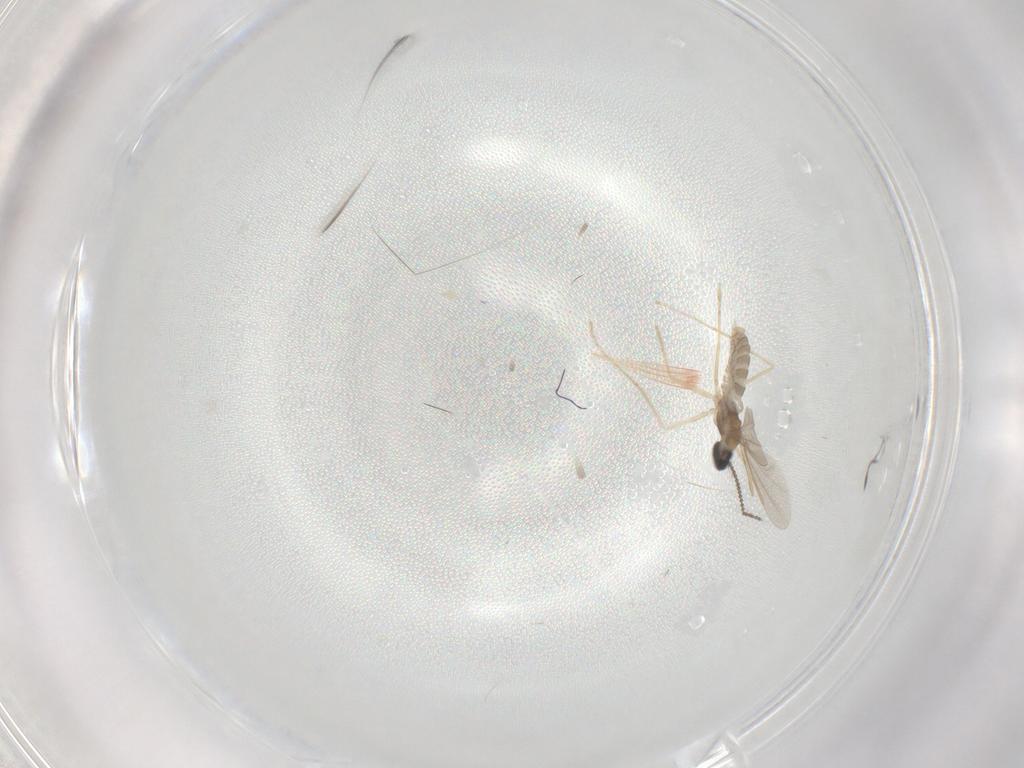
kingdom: Animalia
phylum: Arthropoda
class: Insecta
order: Diptera
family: Cecidomyiidae
